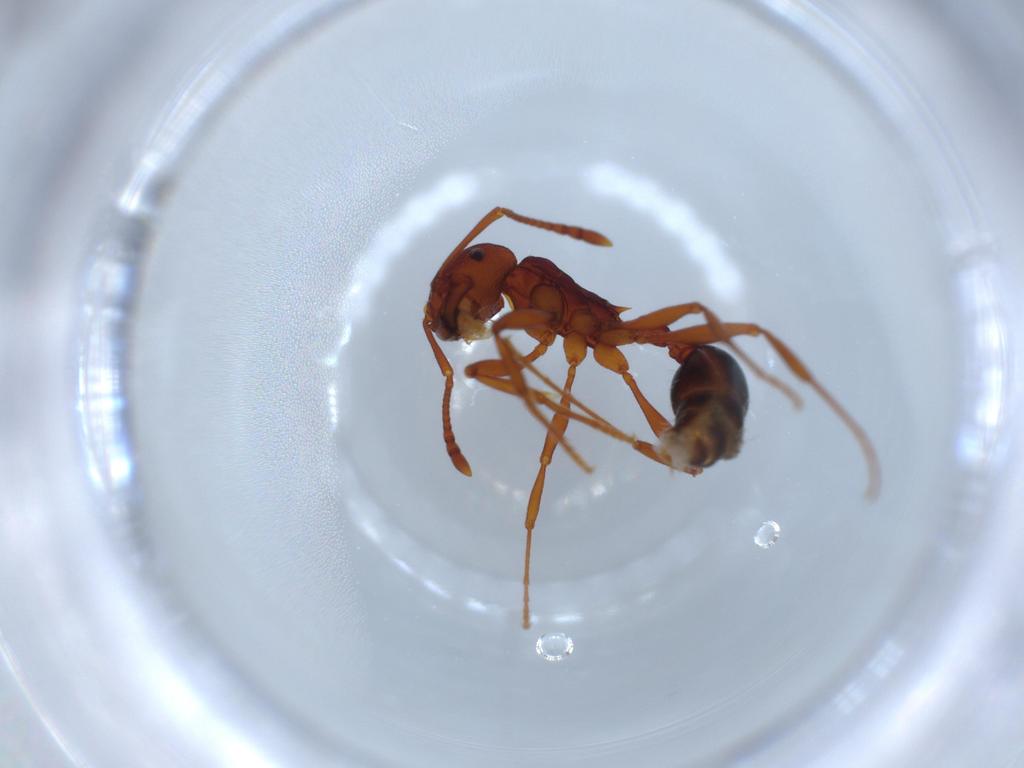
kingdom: Animalia
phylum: Arthropoda
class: Insecta
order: Hymenoptera
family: Formicidae
